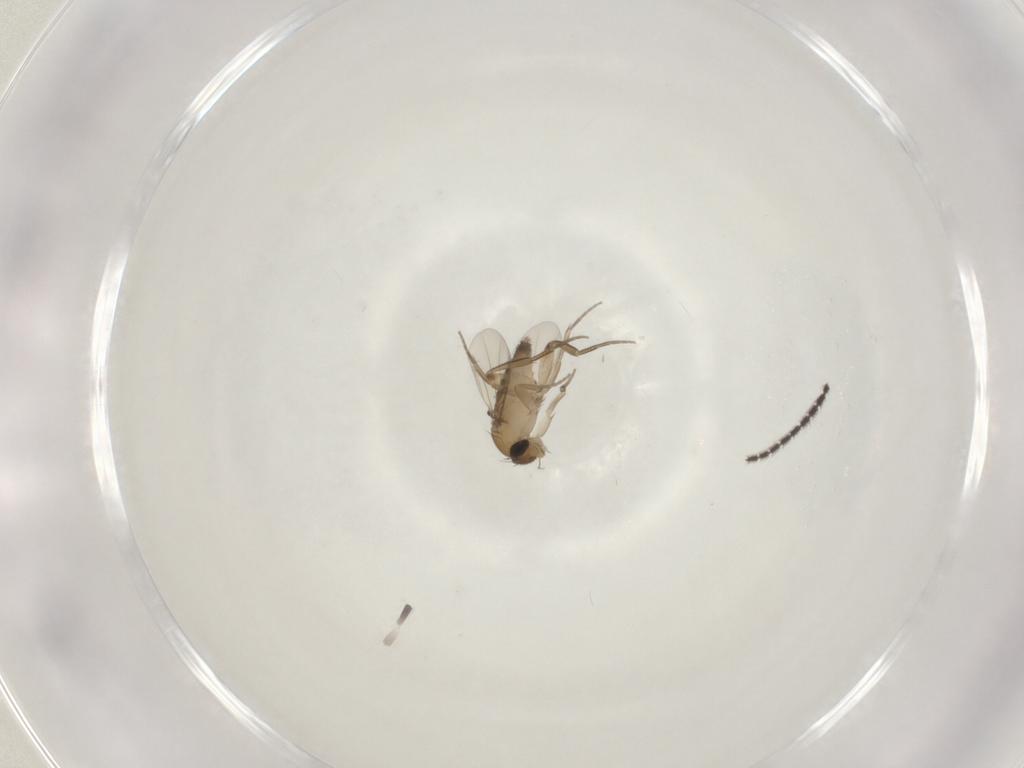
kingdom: Animalia
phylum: Arthropoda
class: Insecta
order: Diptera
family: Phoridae
